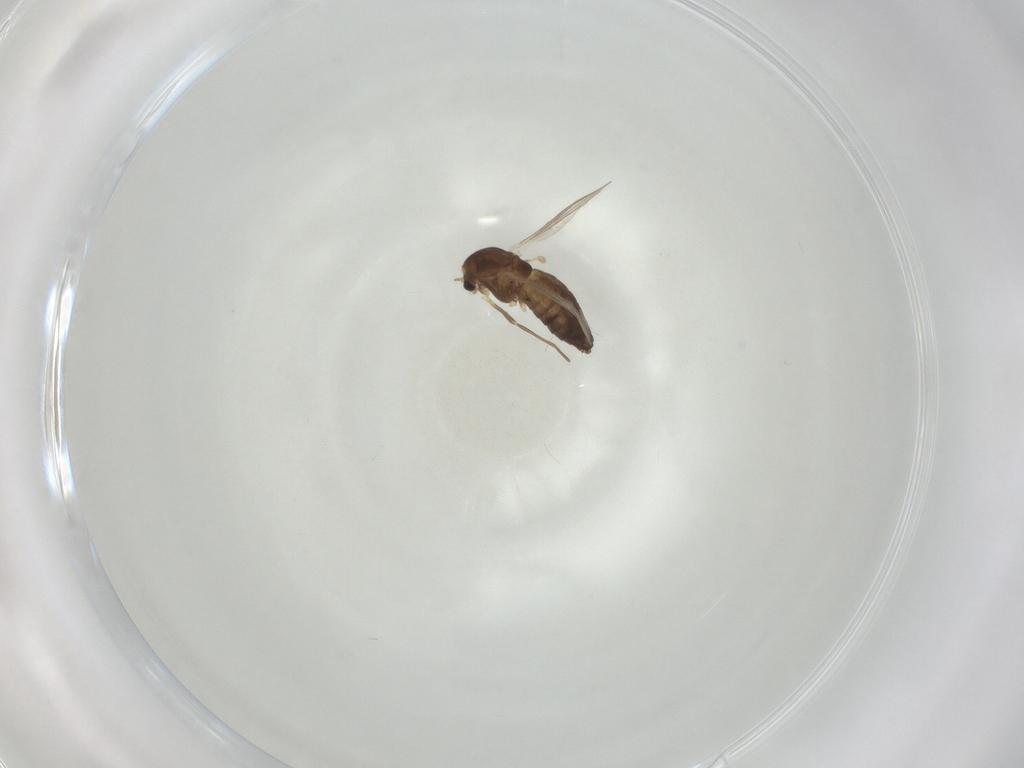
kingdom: Animalia
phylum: Arthropoda
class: Insecta
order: Diptera
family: Chironomidae
